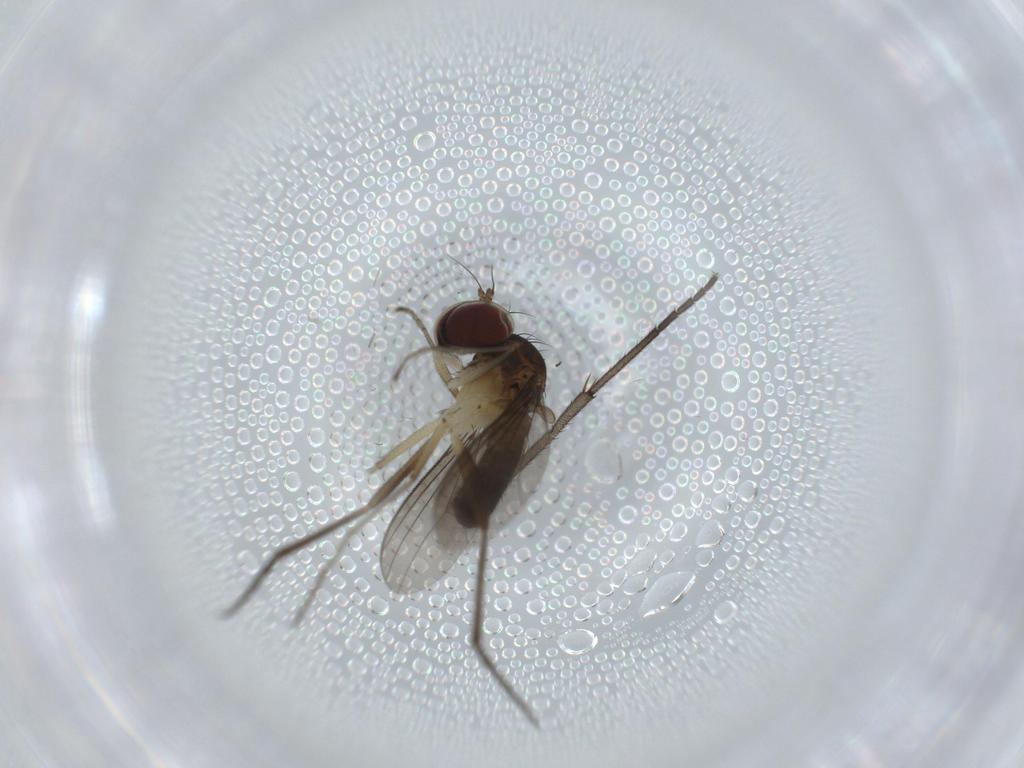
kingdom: Animalia
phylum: Arthropoda
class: Insecta
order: Diptera
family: Dolichopodidae
